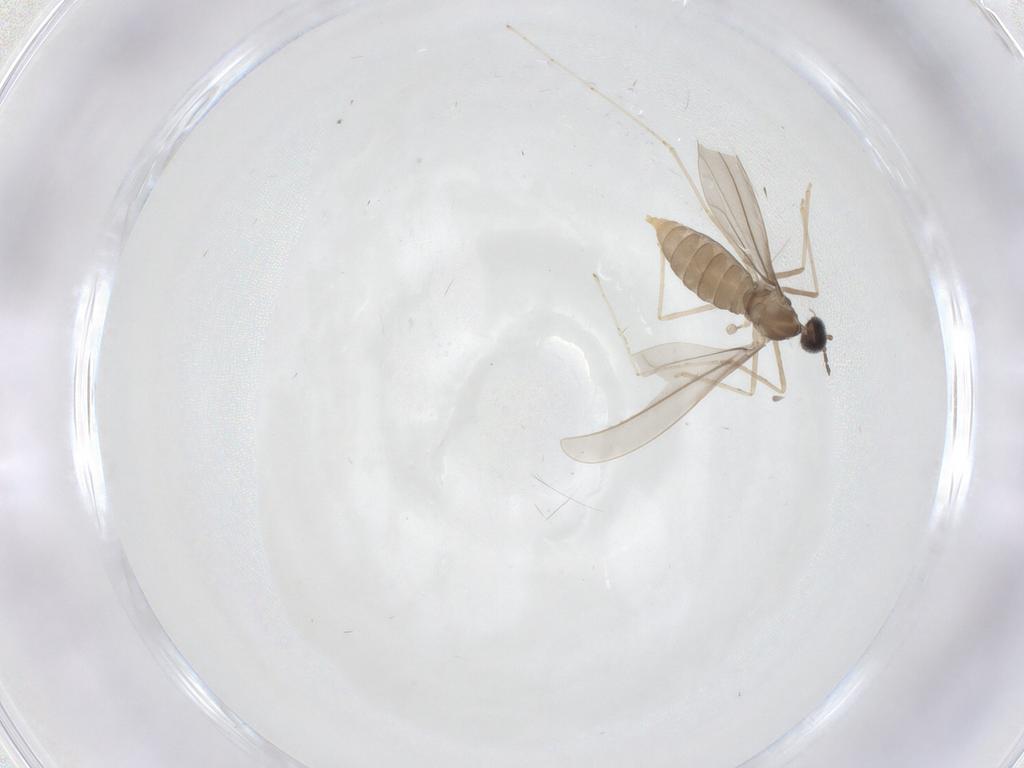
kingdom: Animalia
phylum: Arthropoda
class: Insecta
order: Diptera
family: Cecidomyiidae
